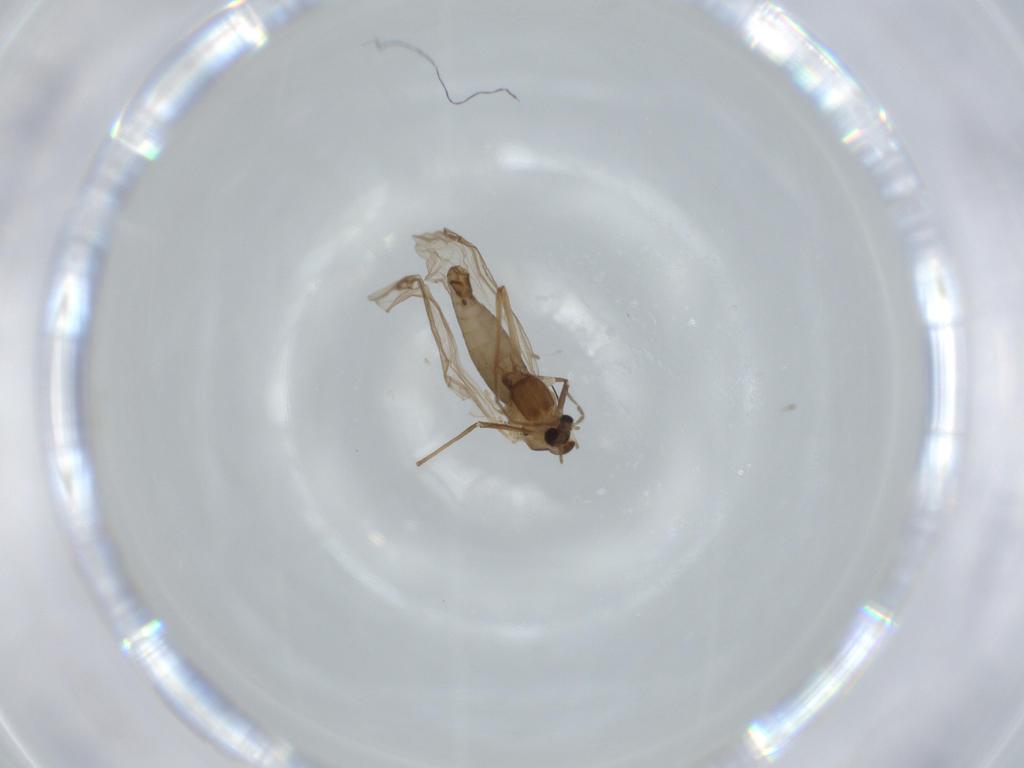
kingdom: Animalia
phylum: Arthropoda
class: Insecta
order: Diptera
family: Chironomidae
